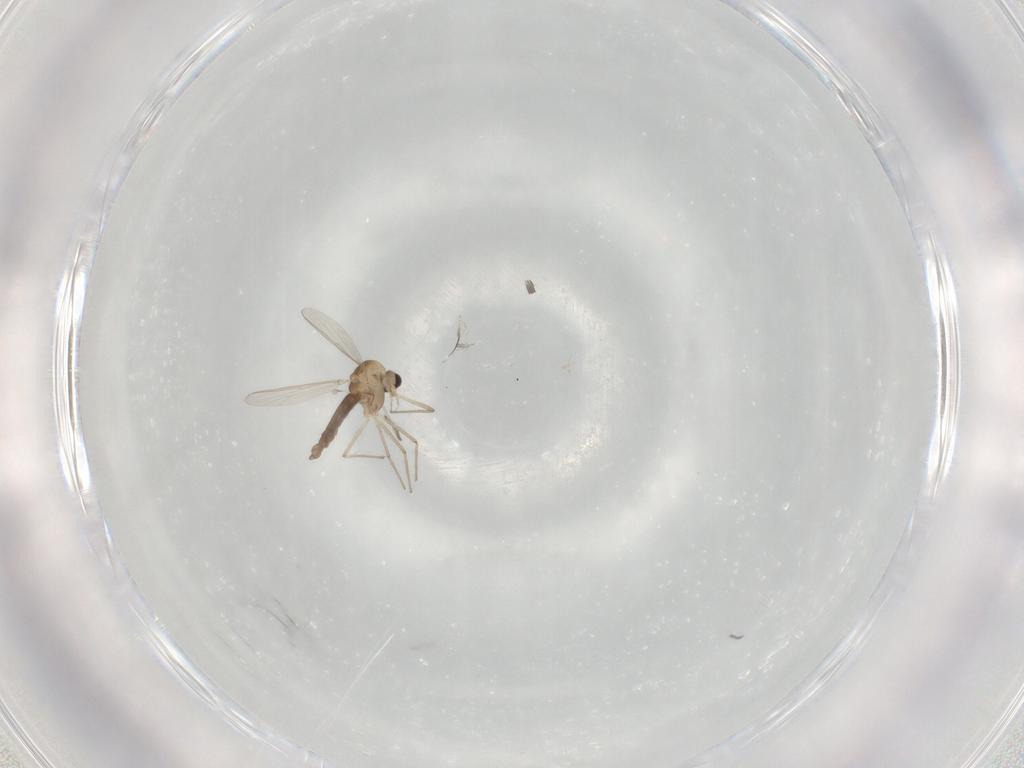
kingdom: Animalia
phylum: Arthropoda
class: Insecta
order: Diptera
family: Chironomidae
